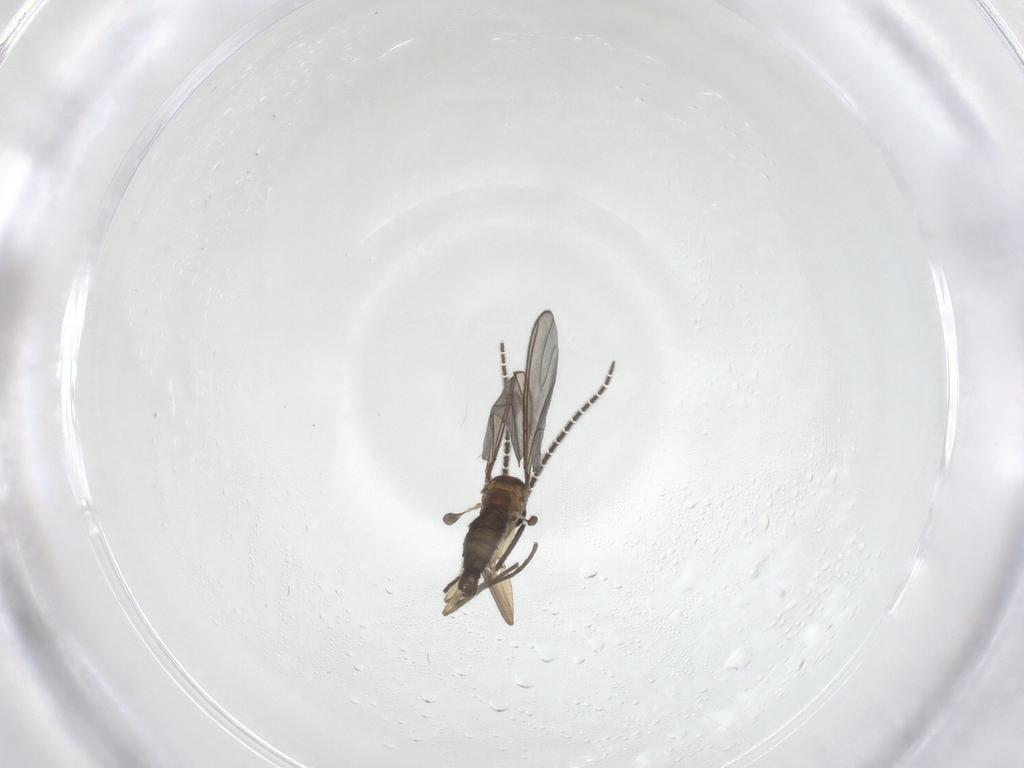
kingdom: Animalia
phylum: Arthropoda
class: Insecta
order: Diptera
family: Sciaridae
